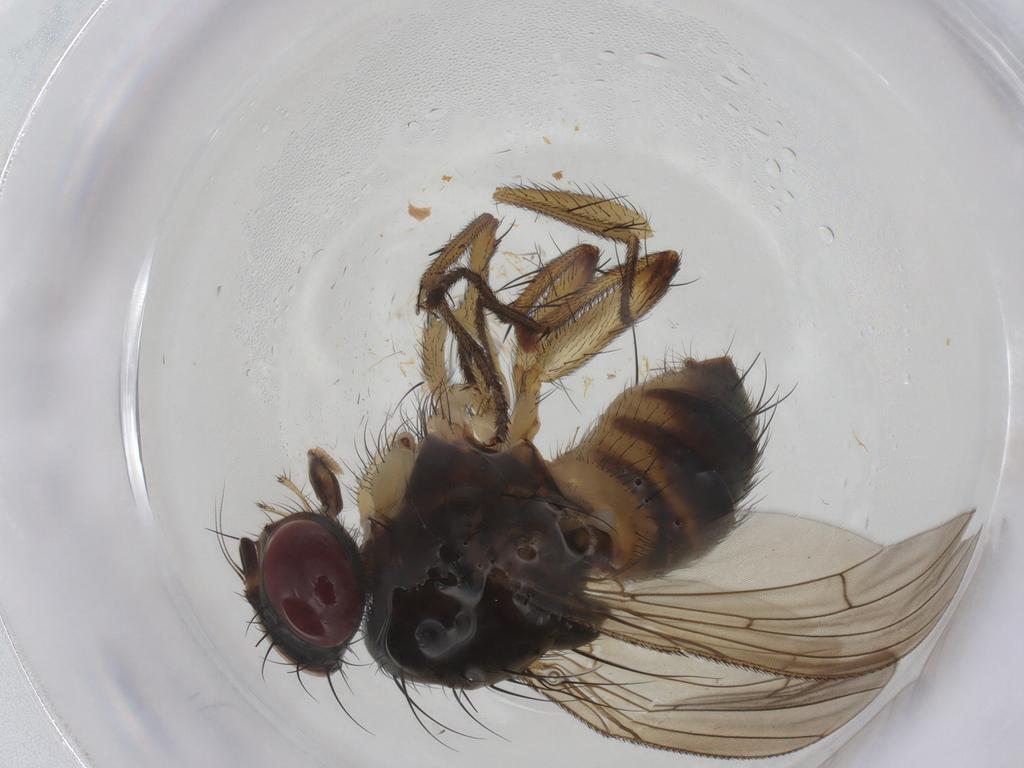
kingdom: Animalia
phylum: Arthropoda
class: Insecta
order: Diptera
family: Muscidae
